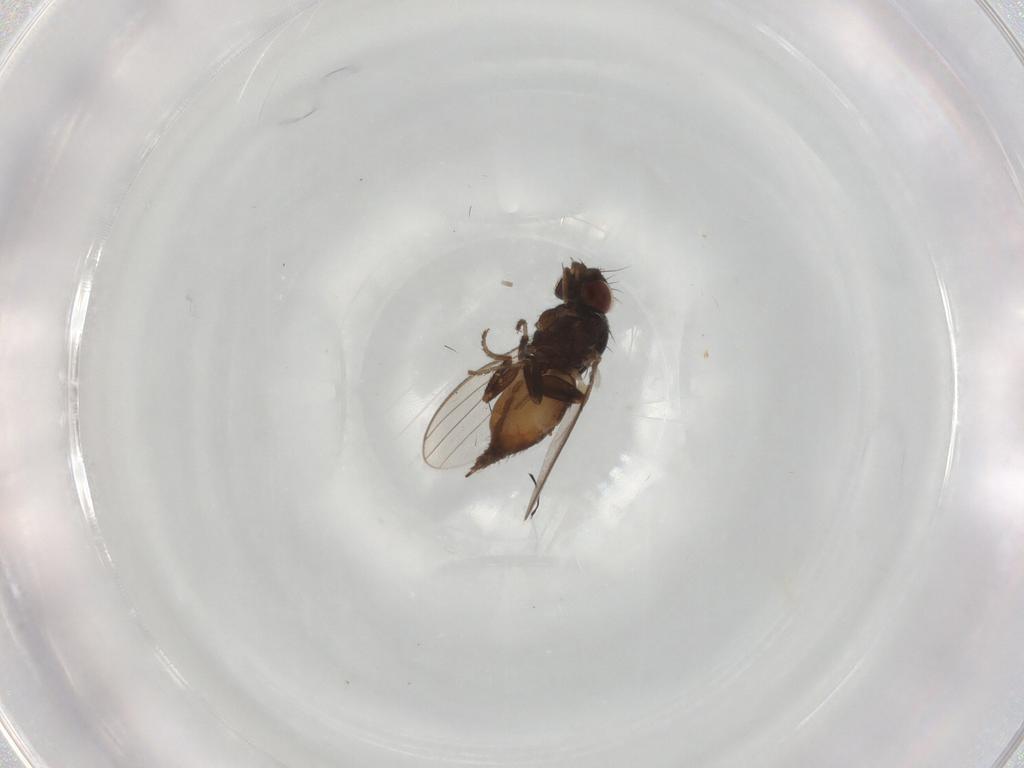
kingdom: Animalia
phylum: Arthropoda
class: Insecta
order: Diptera
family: Milichiidae
